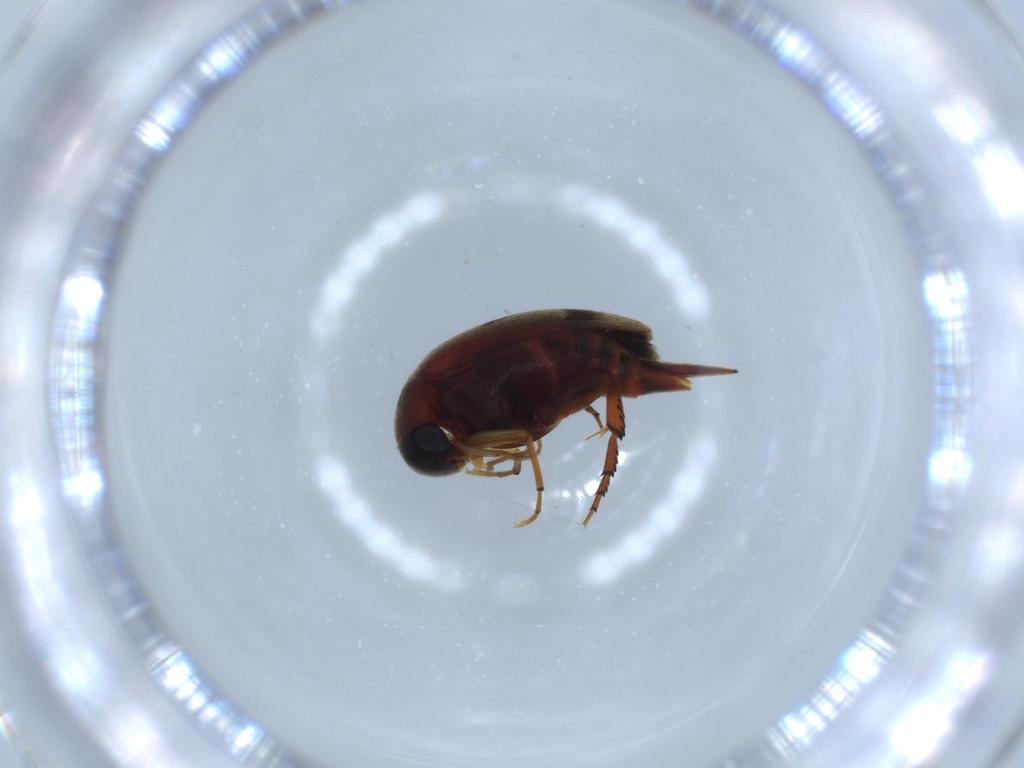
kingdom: Animalia
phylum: Arthropoda
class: Insecta
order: Coleoptera
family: Mordellidae
